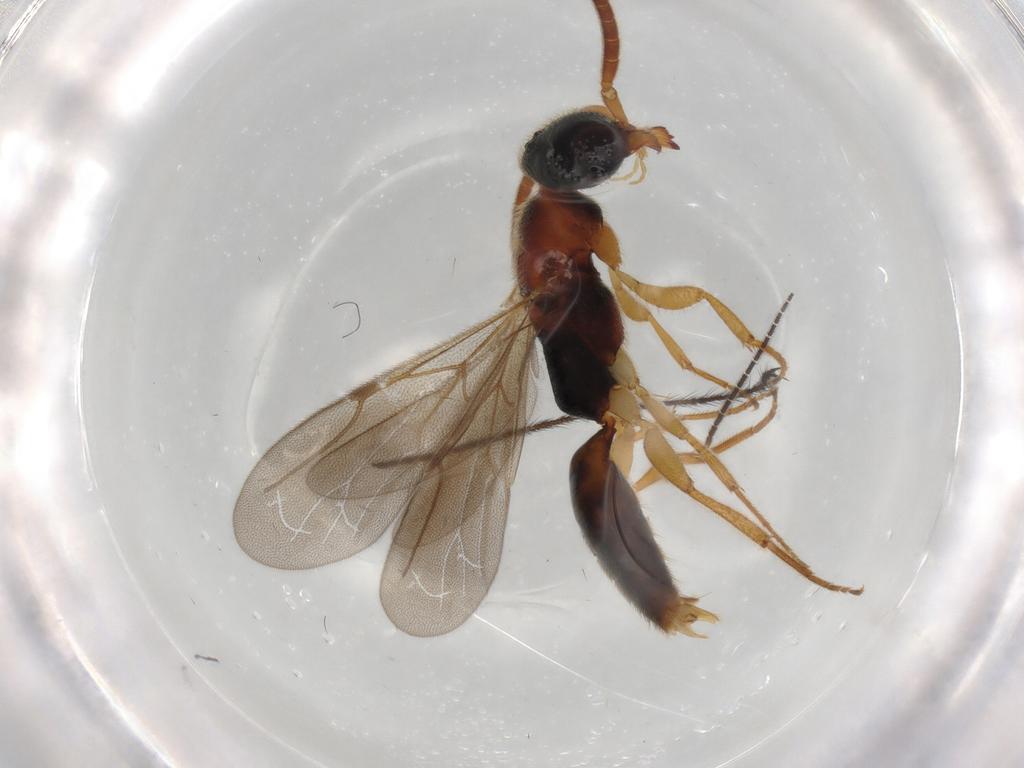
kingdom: Animalia
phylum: Arthropoda
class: Insecta
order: Hymenoptera
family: Bethylidae
